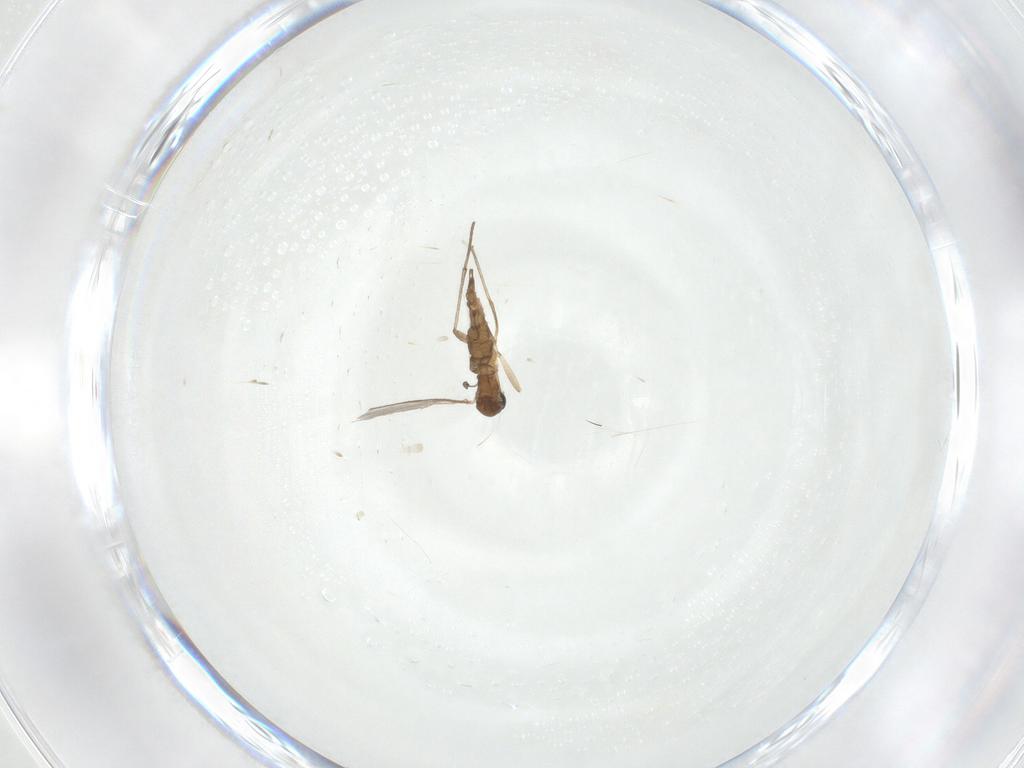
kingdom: Animalia
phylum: Arthropoda
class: Insecta
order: Diptera
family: Sciaridae
